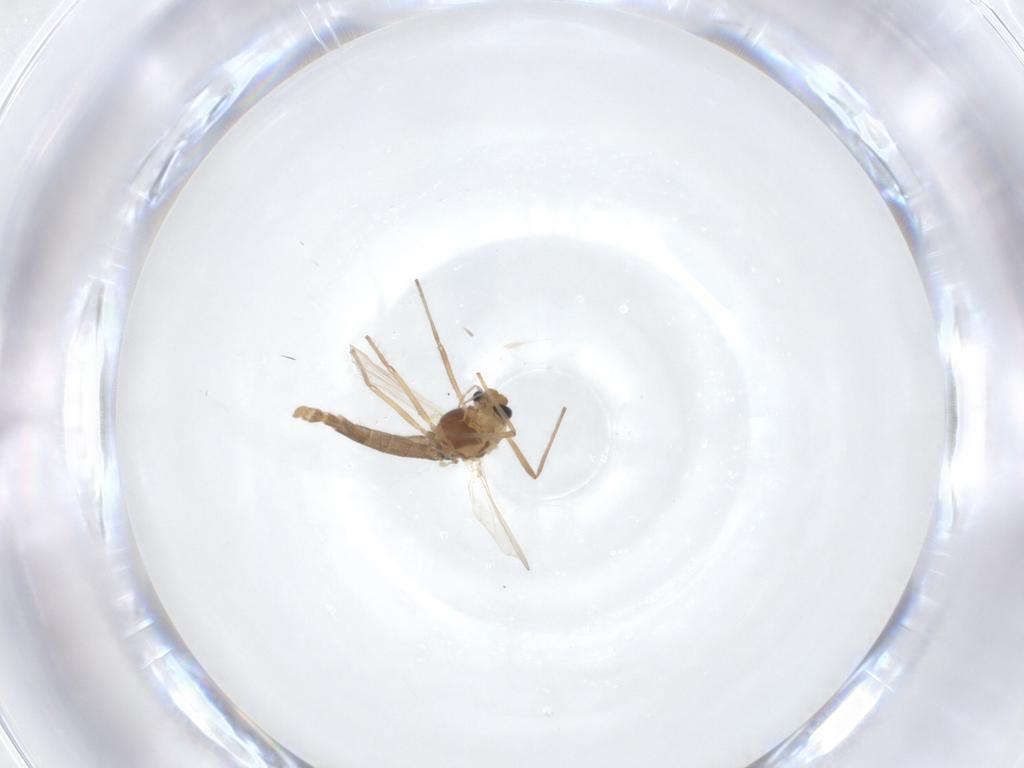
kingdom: Animalia
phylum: Arthropoda
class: Insecta
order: Diptera
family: Chironomidae
